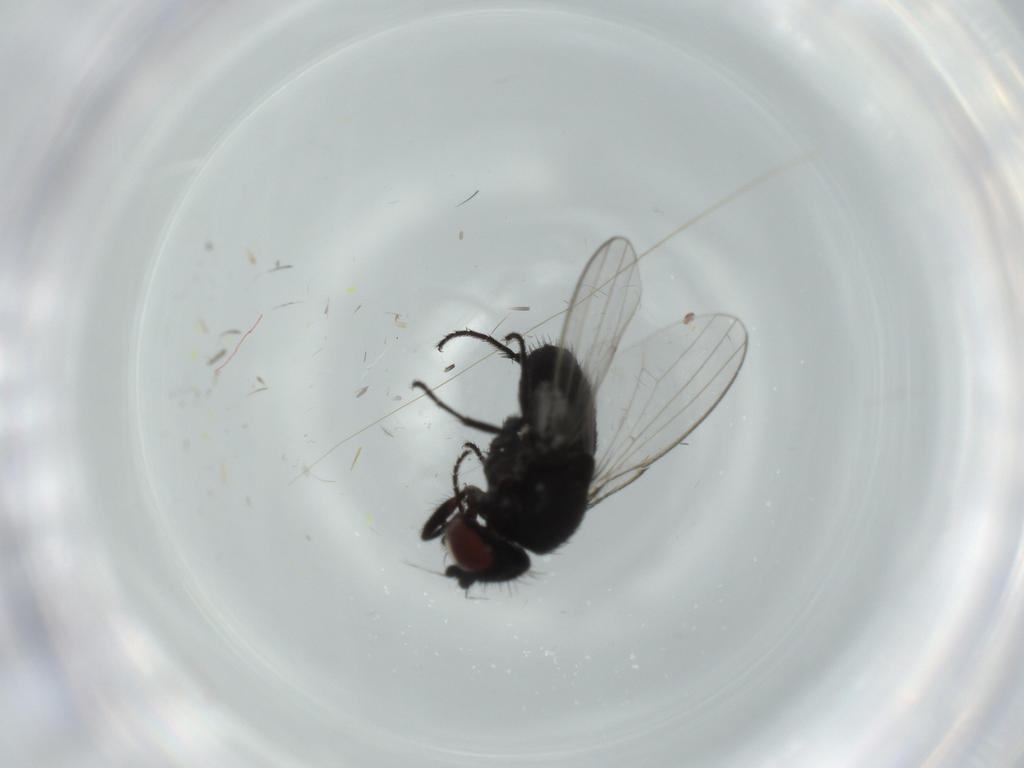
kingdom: Animalia
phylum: Arthropoda
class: Insecta
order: Diptera
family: Milichiidae
